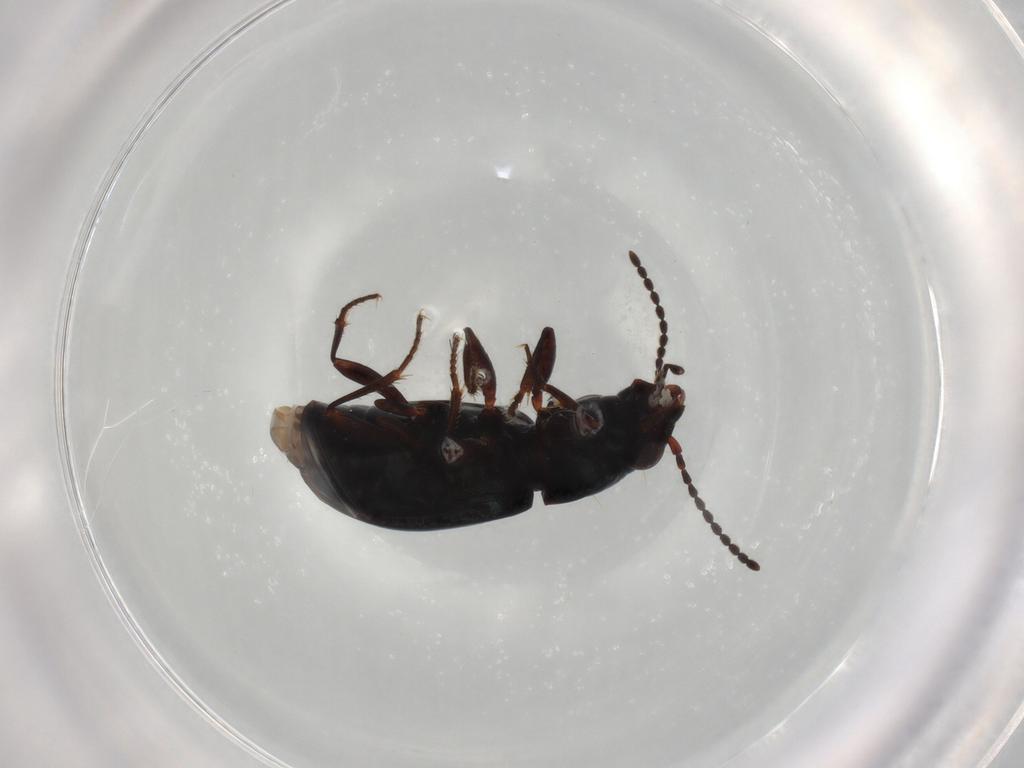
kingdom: Animalia
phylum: Arthropoda
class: Insecta
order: Coleoptera
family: Carabidae
